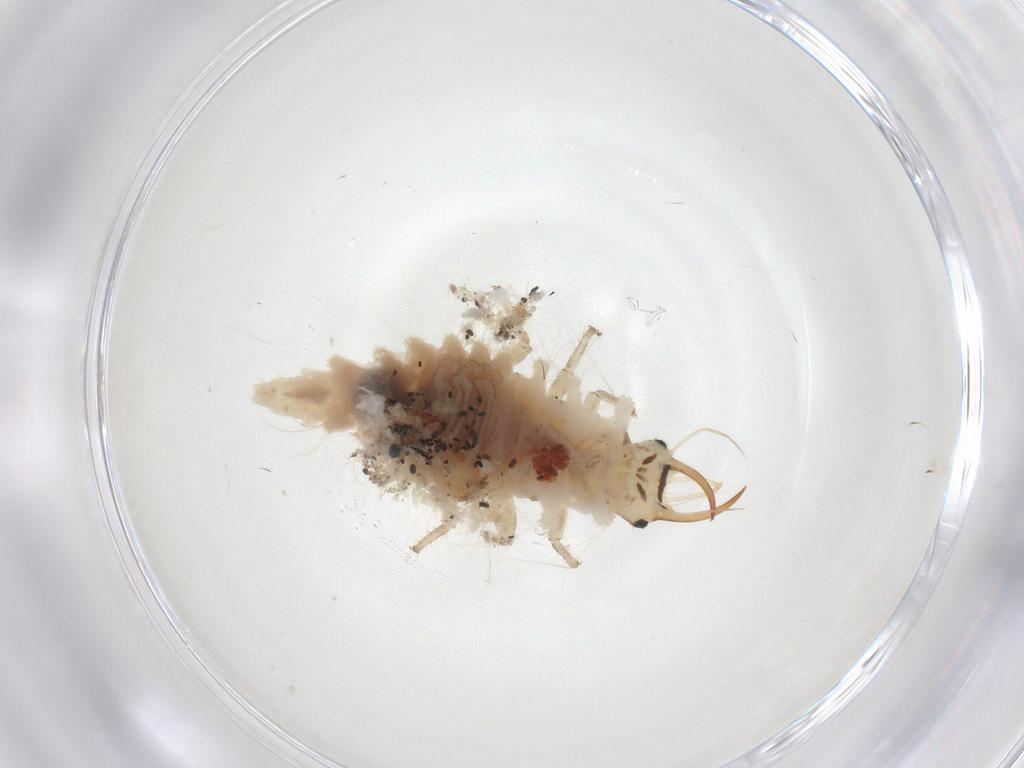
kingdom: Animalia
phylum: Arthropoda
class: Insecta
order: Neuroptera
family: Chrysopidae
